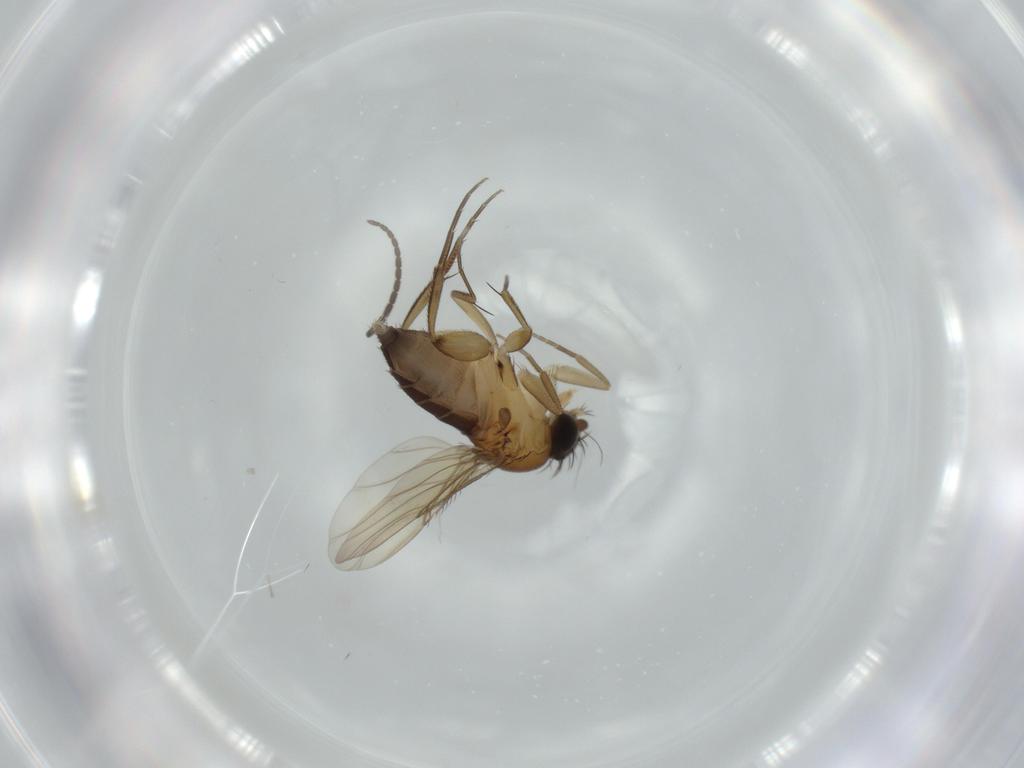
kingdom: Animalia
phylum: Arthropoda
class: Insecta
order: Diptera
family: Phoridae
